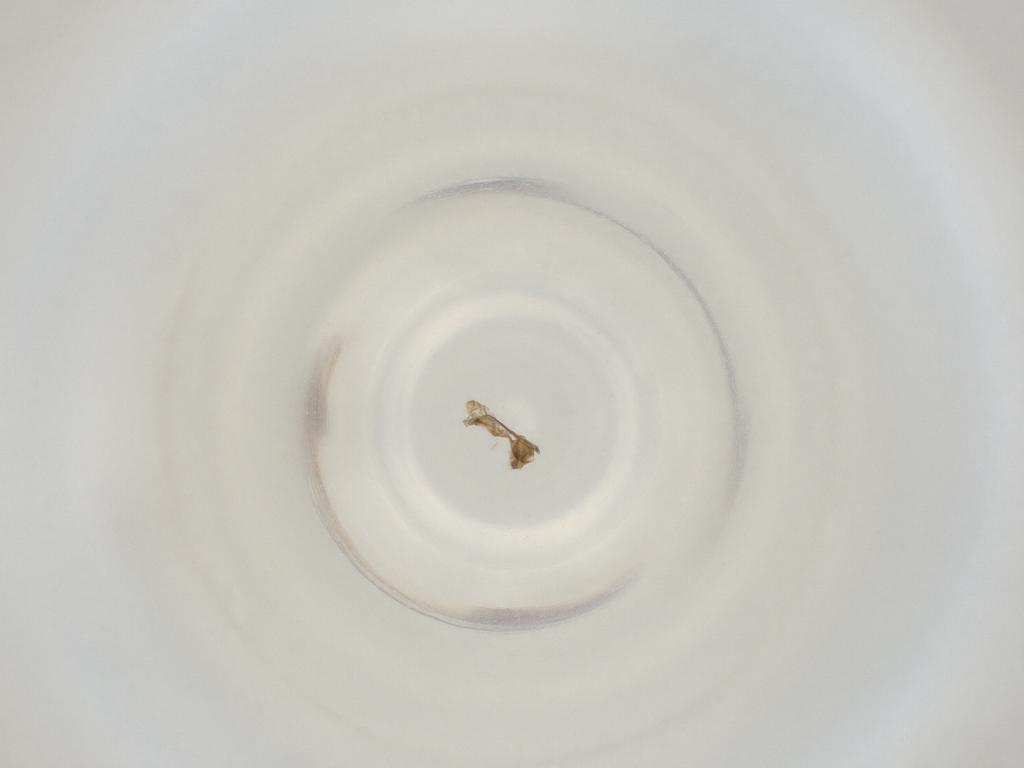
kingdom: Animalia
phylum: Arthropoda
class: Insecta
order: Diptera
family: Cecidomyiidae
